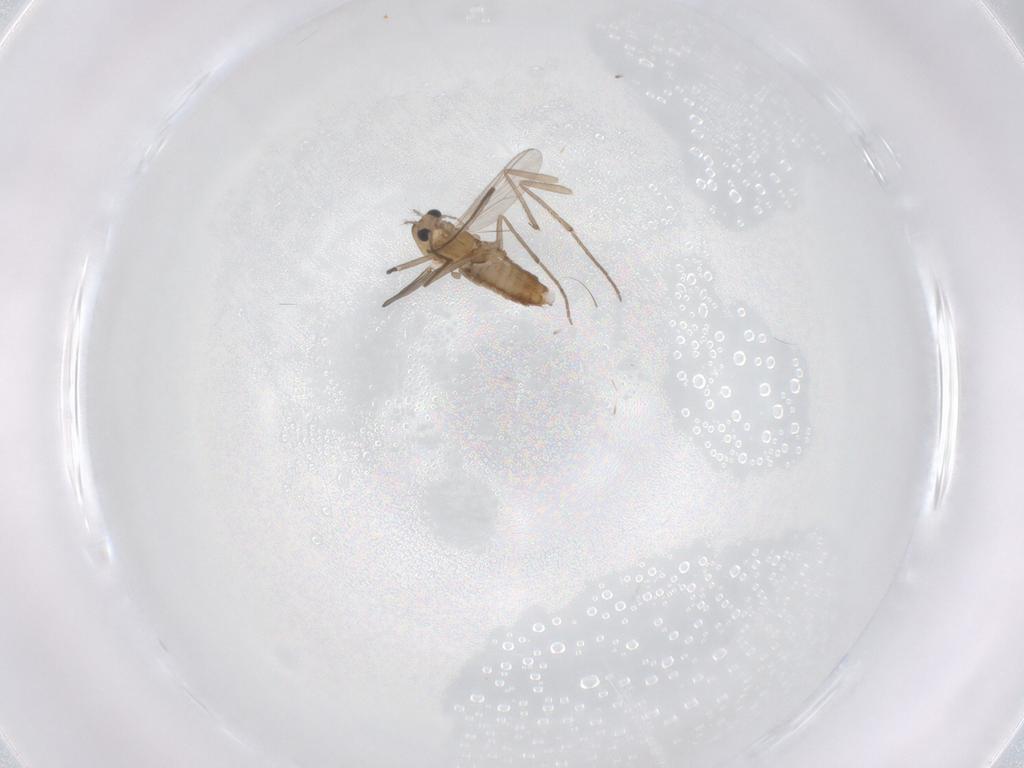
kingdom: Animalia
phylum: Arthropoda
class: Insecta
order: Diptera
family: Chironomidae
